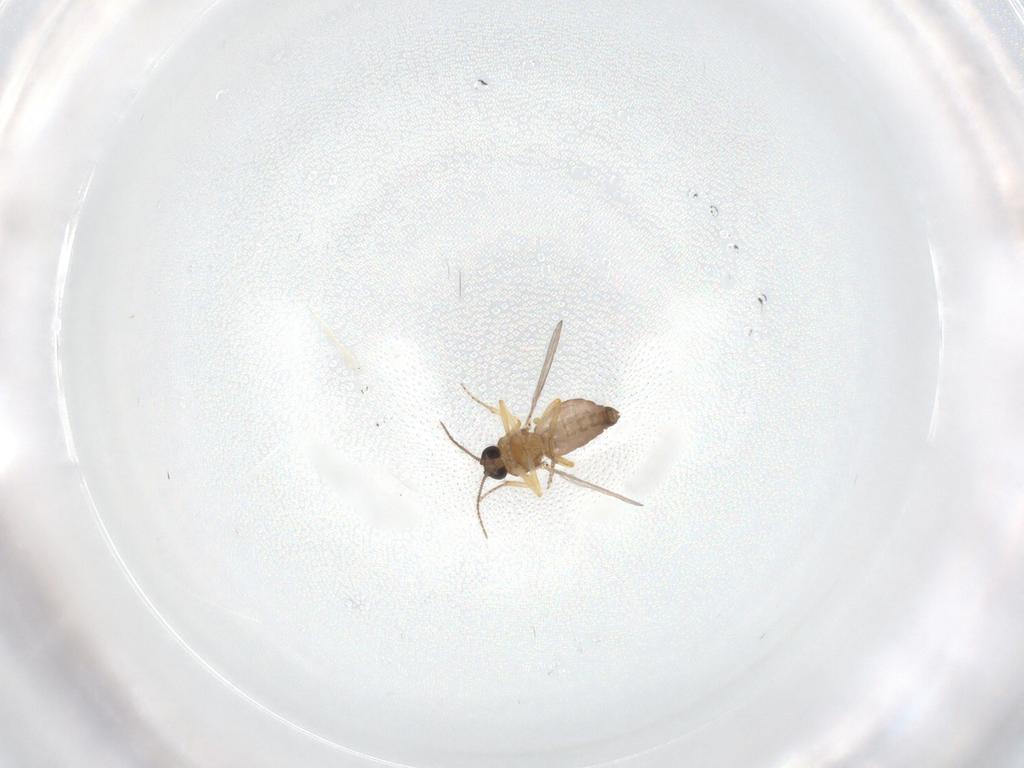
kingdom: Animalia
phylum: Arthropoda
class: Insecta
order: Diptera
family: Ceratopogonidae
